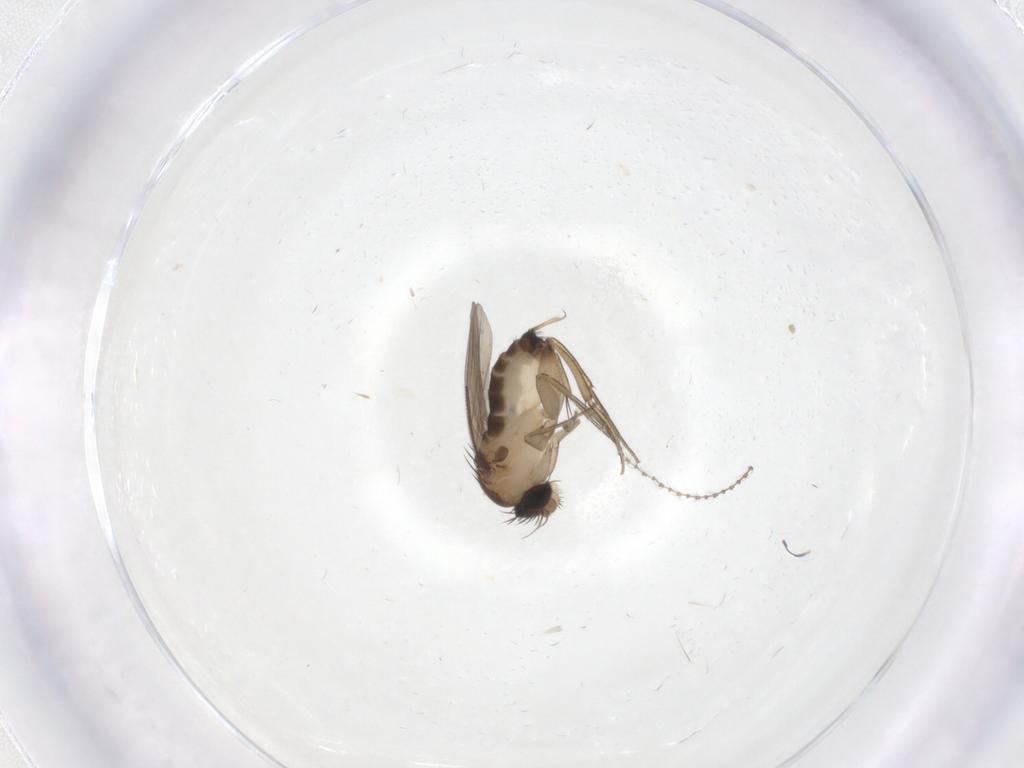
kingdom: Animalia
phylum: Arthropoda
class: Insecta
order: Diptera
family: Phoridae
